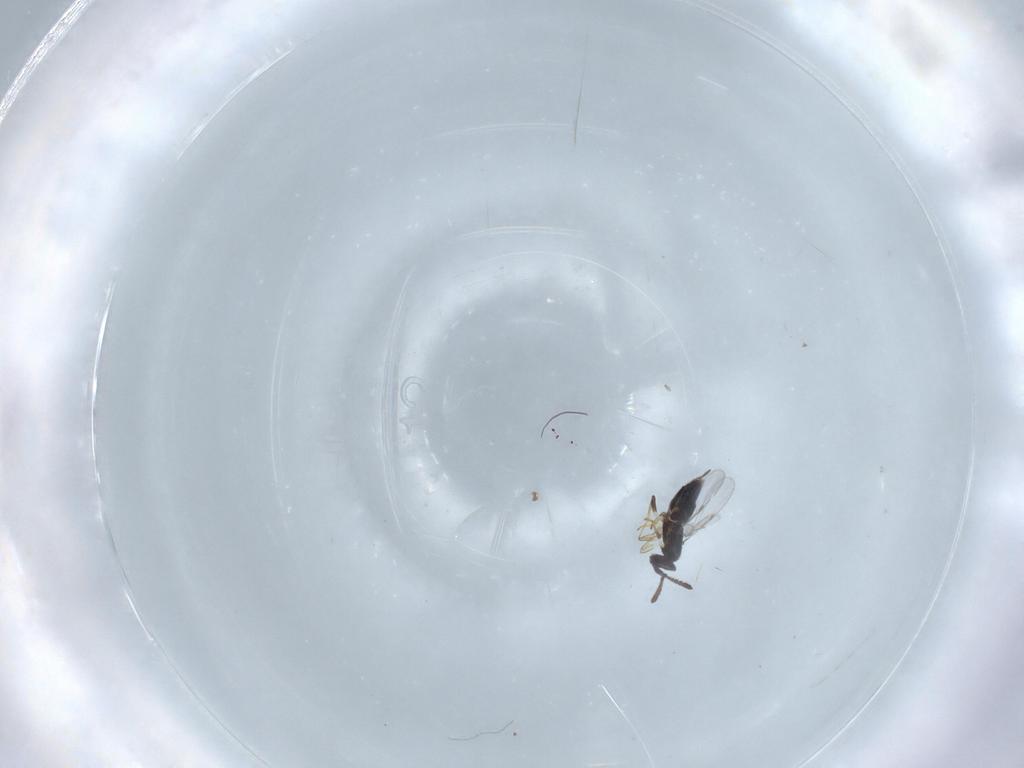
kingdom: Animalia
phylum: Arthropoda
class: Insecta
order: Hymenoptera
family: Encyrtidae
